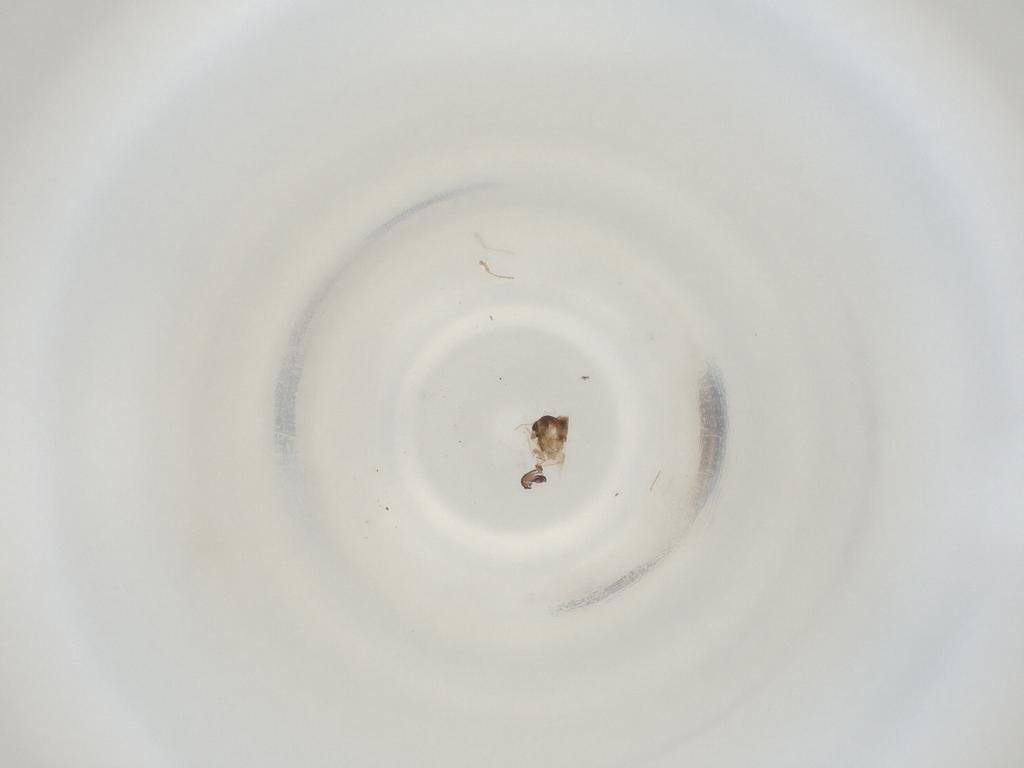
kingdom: Animalia
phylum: Arthropoda
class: Insecta
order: Diptera
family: Cecidomyiidae
